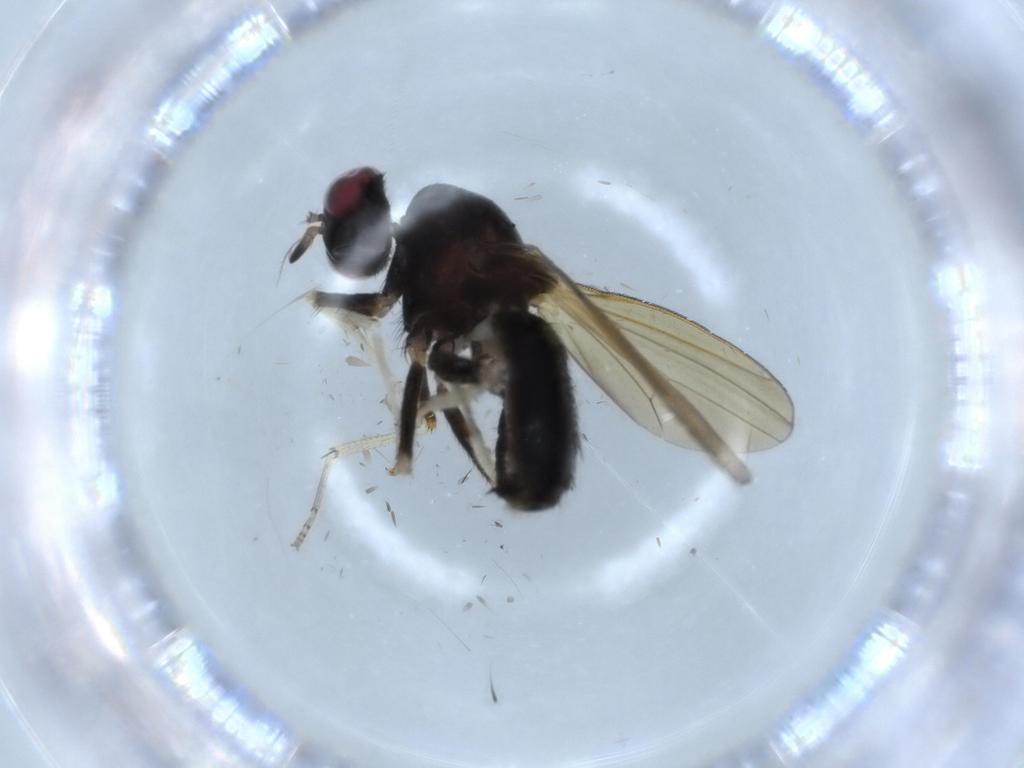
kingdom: Animalia
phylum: Arthropoda
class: Insecta
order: Diptera
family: Lauxaniidae
